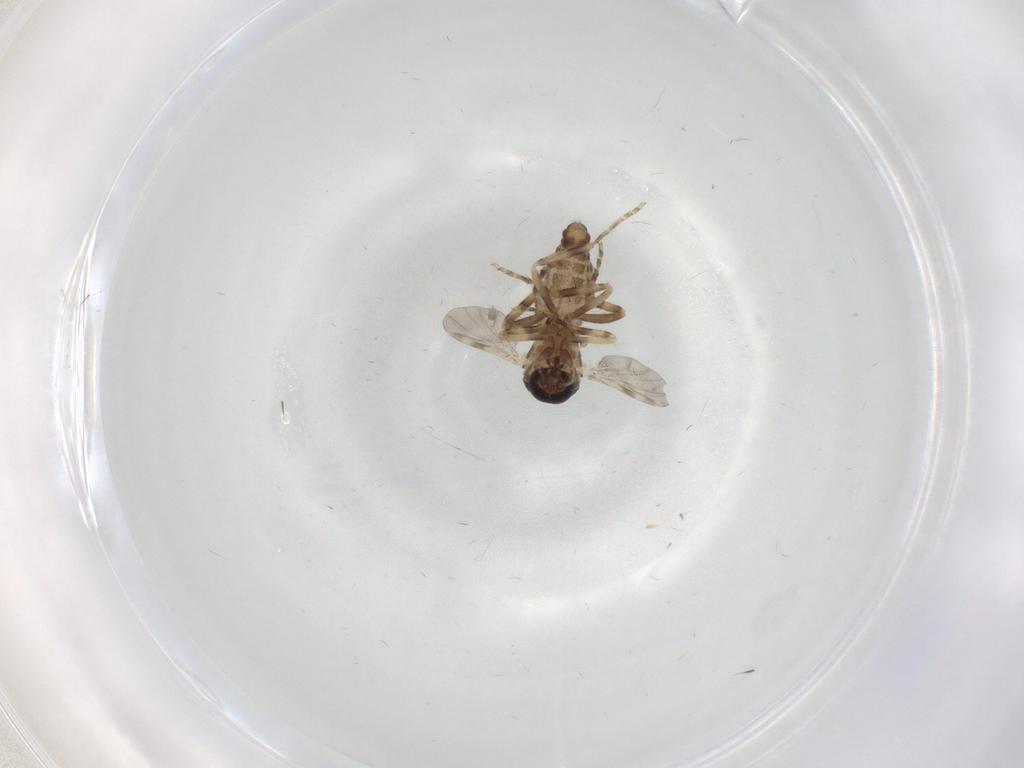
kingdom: Animalia
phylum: Arthropoda
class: Insecta
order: Diptera
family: Ceratopogonidae
